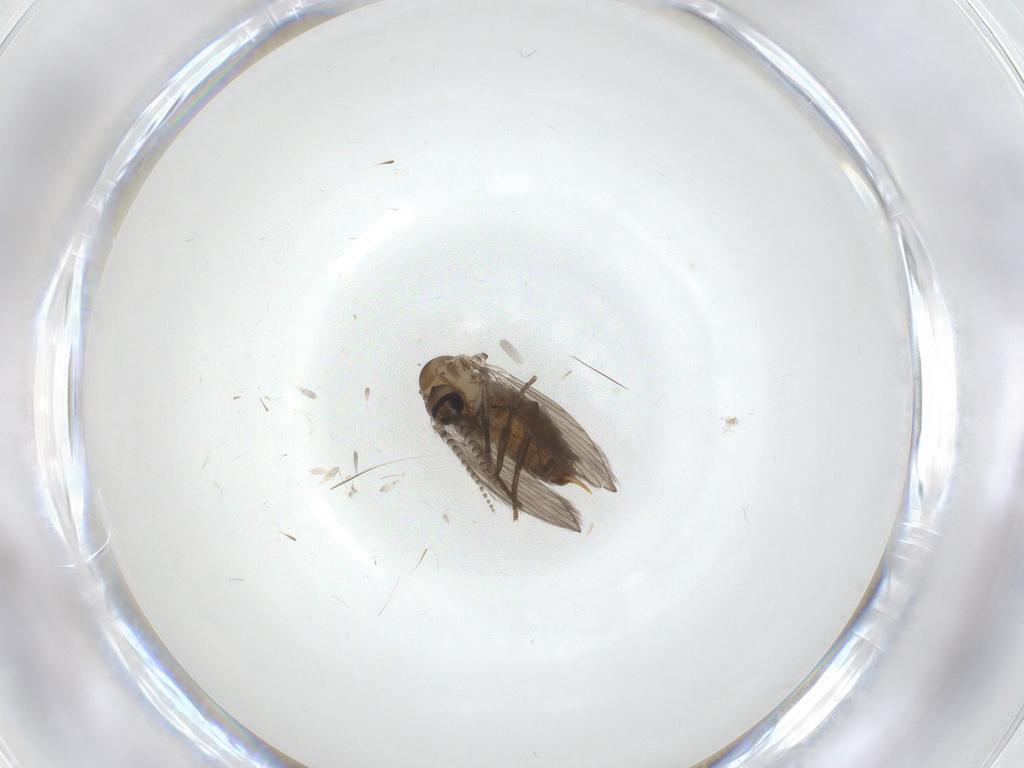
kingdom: Animalia
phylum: Arthropoda
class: Insecta
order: Diptera
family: Psychodidae
